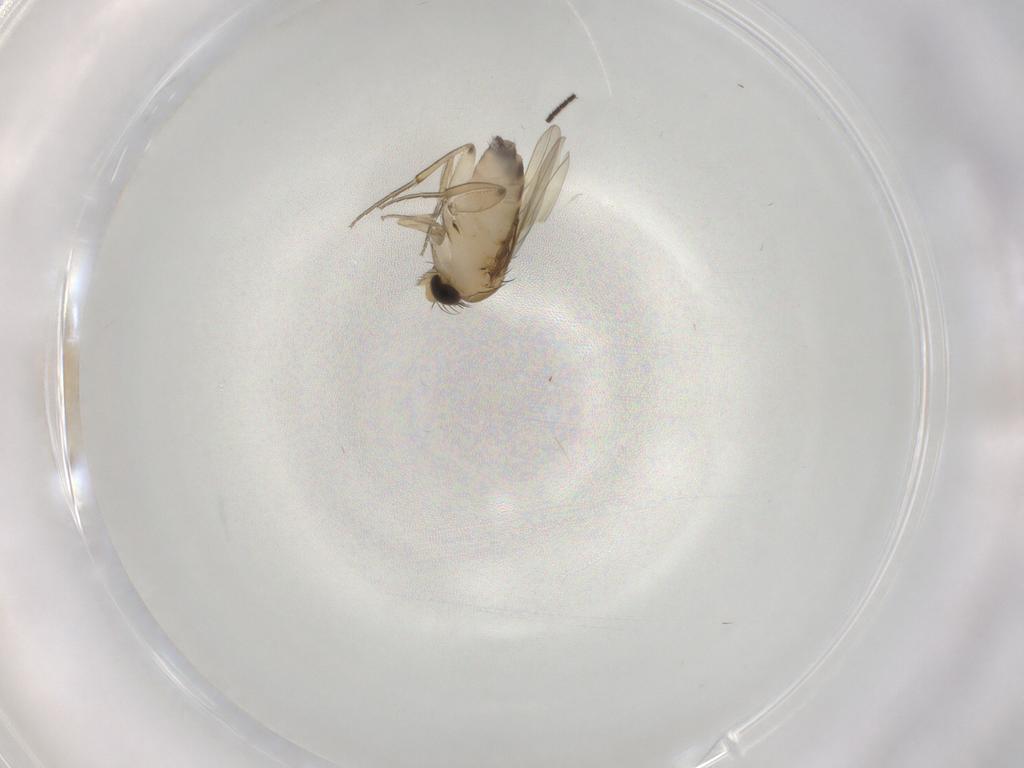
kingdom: Animalia
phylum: Arthropoda
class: Insecta
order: Diptera
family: Phoridae
